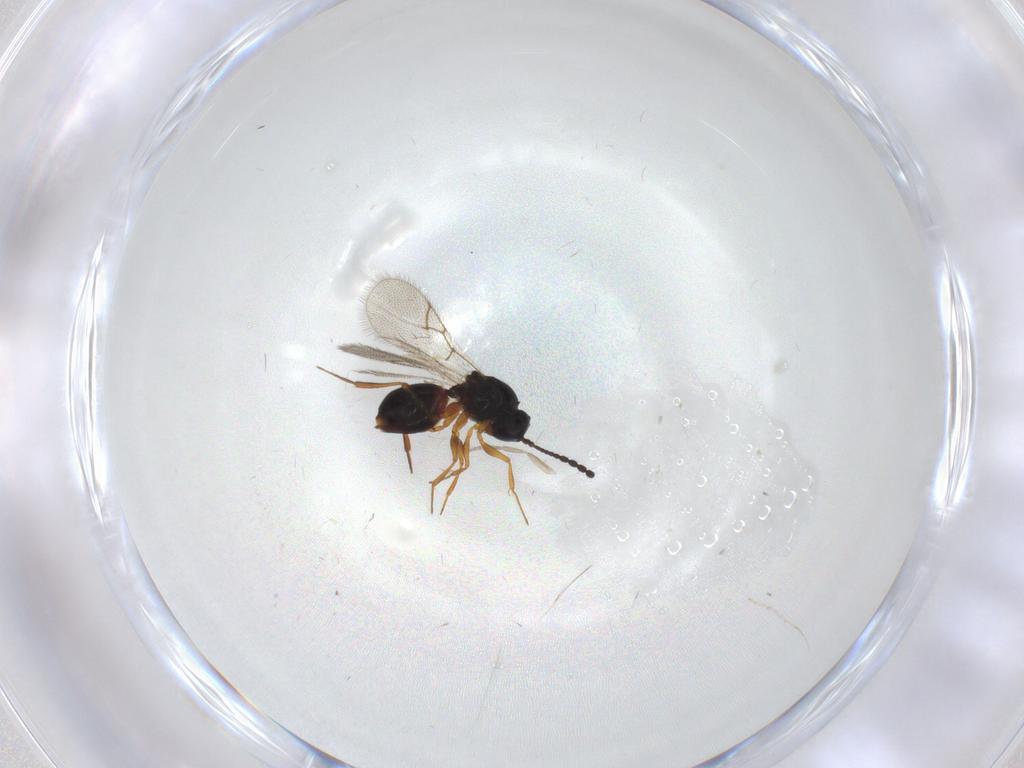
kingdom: Animalia
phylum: Arthropoda
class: Insecta
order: Hymenoptera
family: Figitidae
